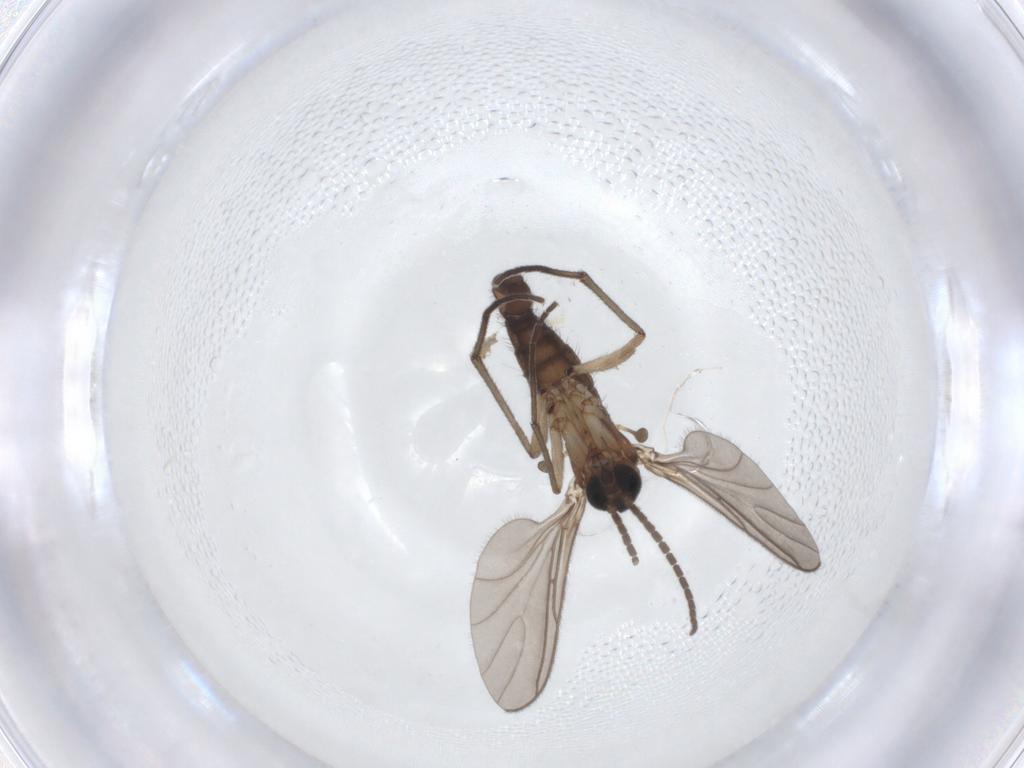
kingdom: Animalia
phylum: Arthropoda
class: Insecta
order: Diptera
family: Sciaridae
